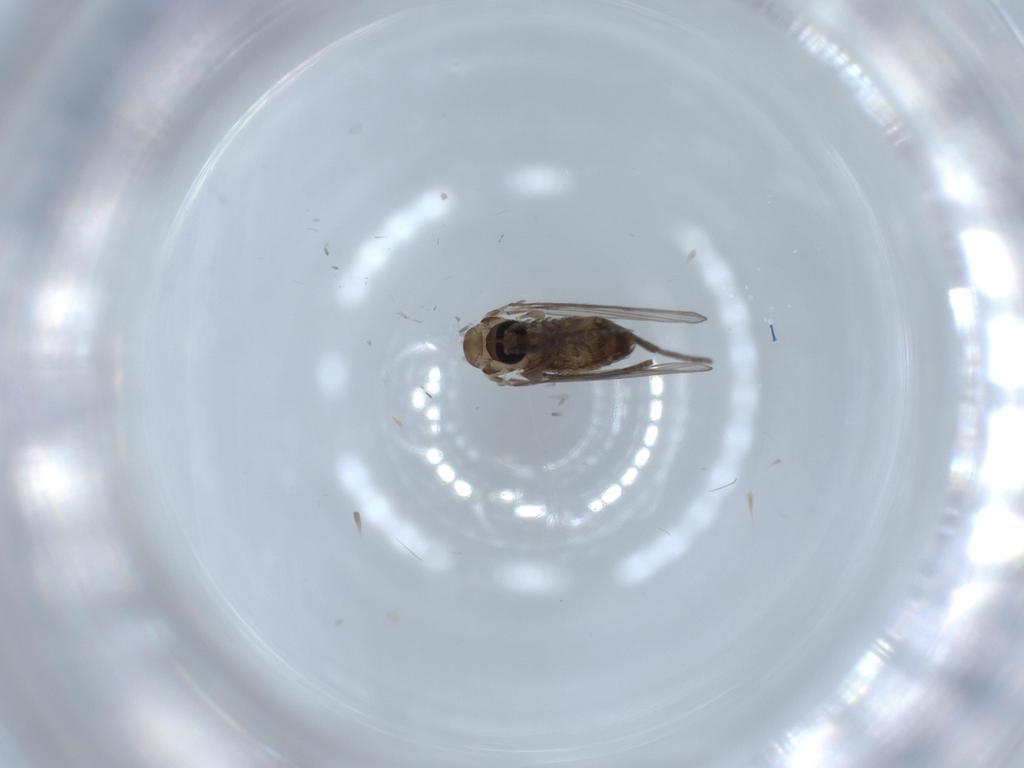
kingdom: Animalia
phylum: Arthropoda
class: Insecta
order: Diptera
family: Psychodidae
